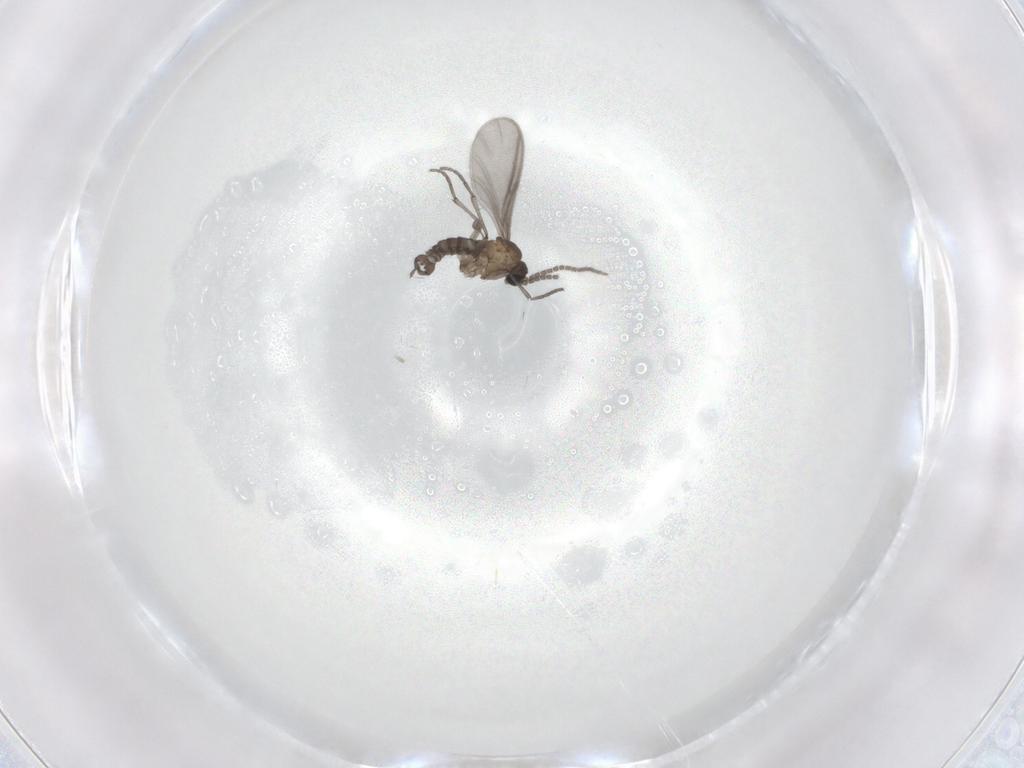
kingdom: Animalia
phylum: Arthropoda
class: Insecta
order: Diptera
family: Sciaridae
